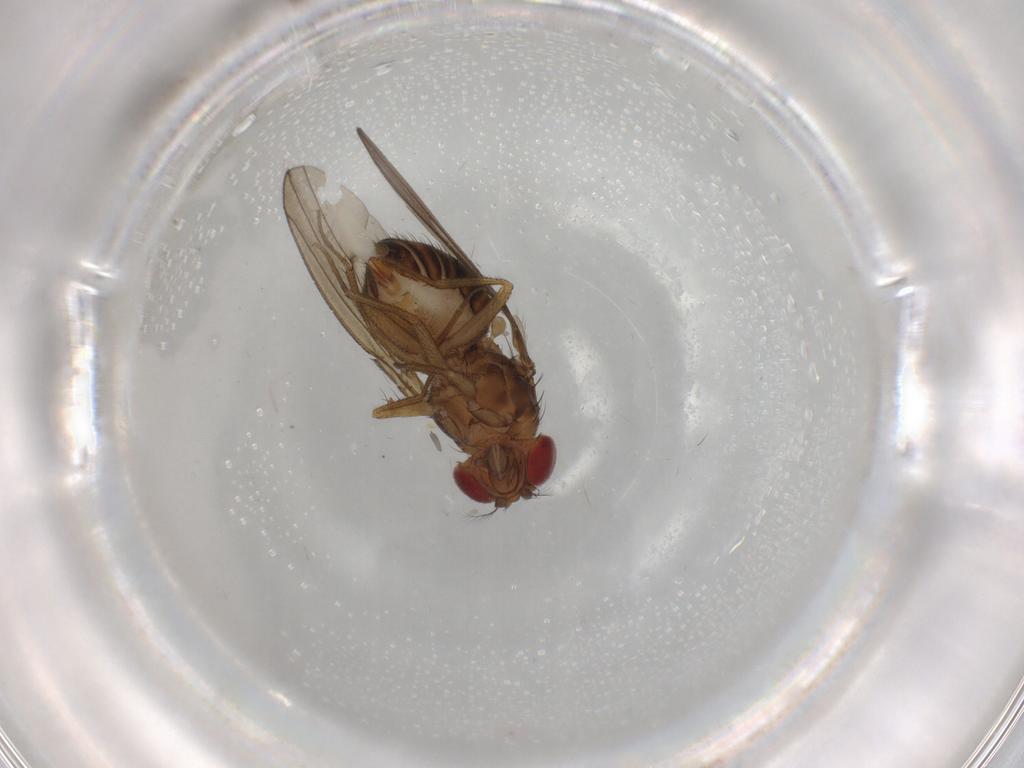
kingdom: Animalia
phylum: Arthropoda
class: Insecta
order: Diptera
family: Drosophilidae
